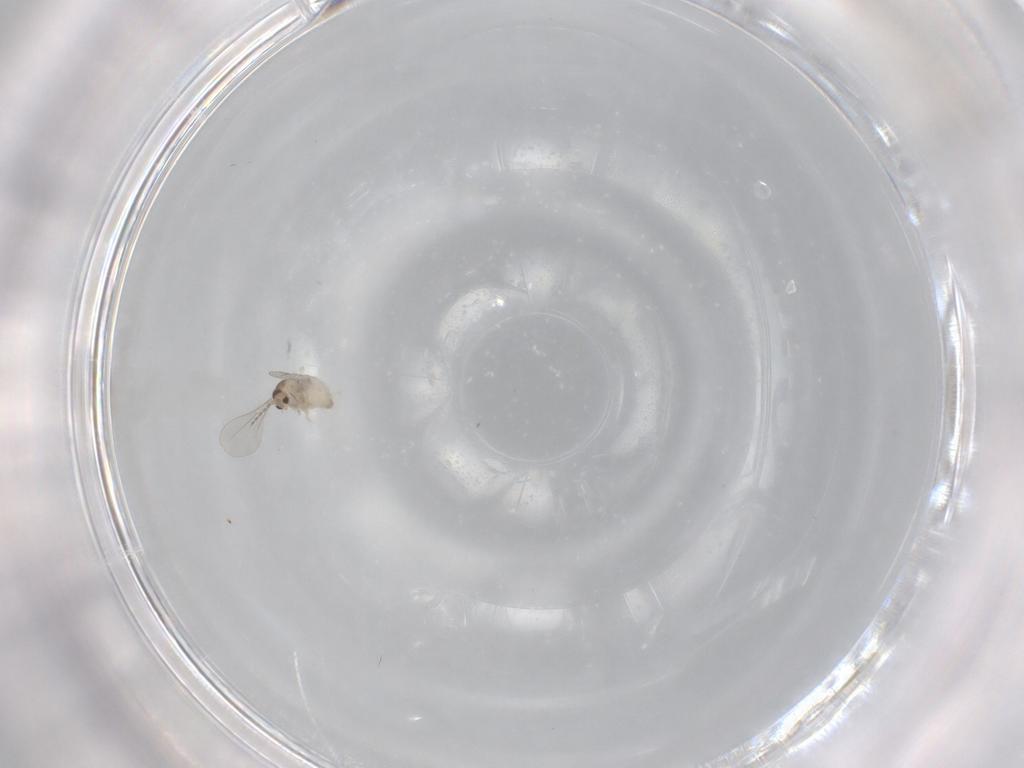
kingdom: Animalia
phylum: Arthropoda
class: Insecta
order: Diptera
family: Cecidomyiidae
